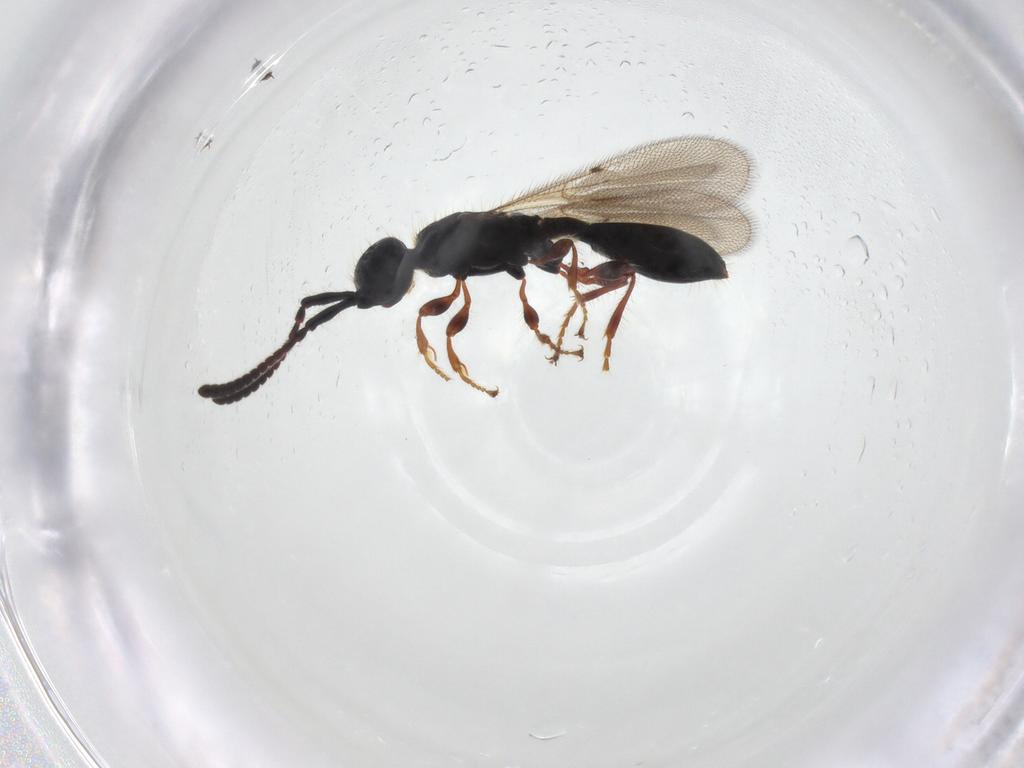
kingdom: Animalia
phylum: Arthropoda
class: Insecta
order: Hymenoptera
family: Diapriidae
